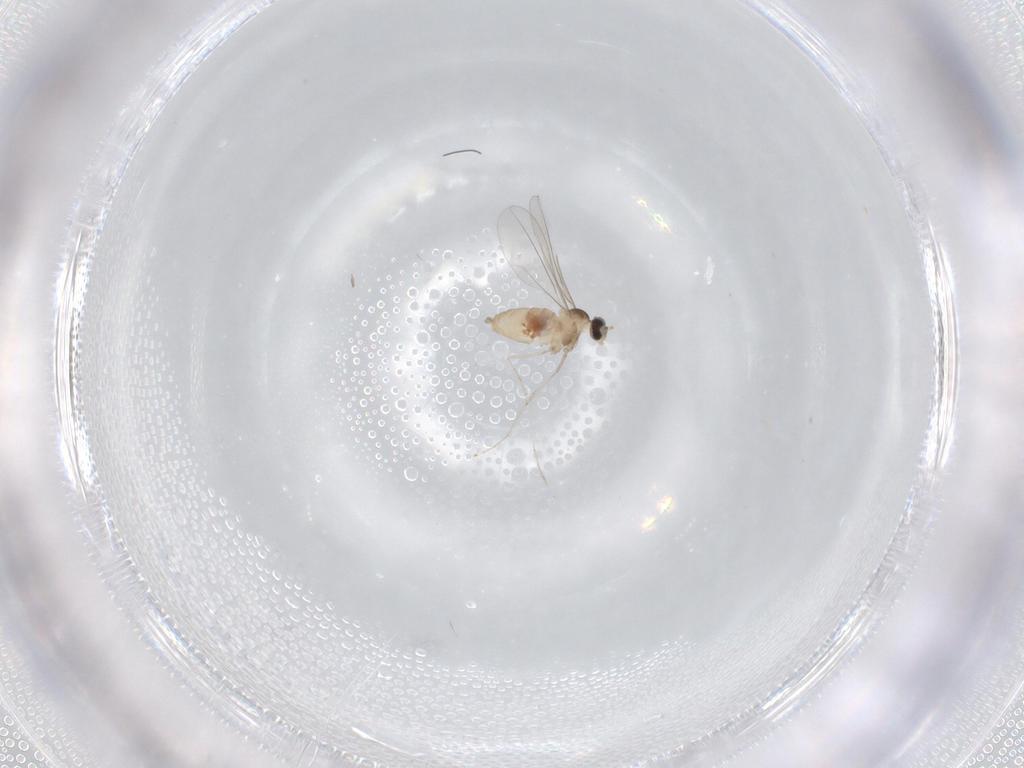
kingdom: Animalia
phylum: Arthropoda
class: Insecta
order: Diptera
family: Cecidomyiidae
